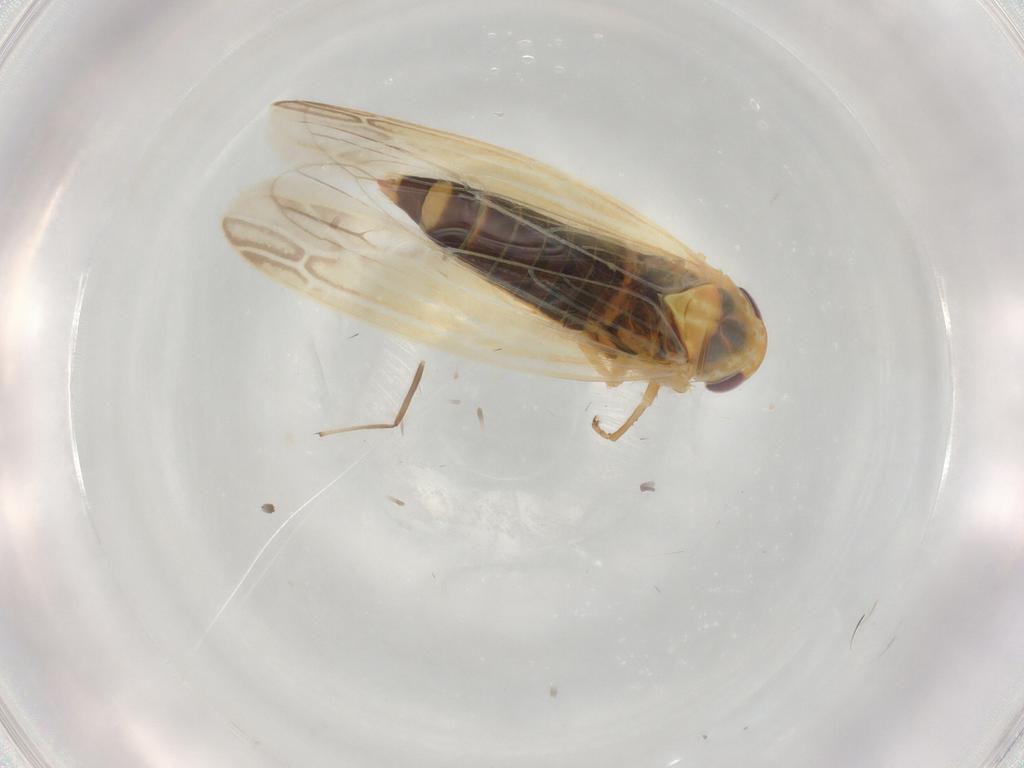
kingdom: Animalia
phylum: Arthropoda
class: Insecta
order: Hemiptera
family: Cicadellidae
